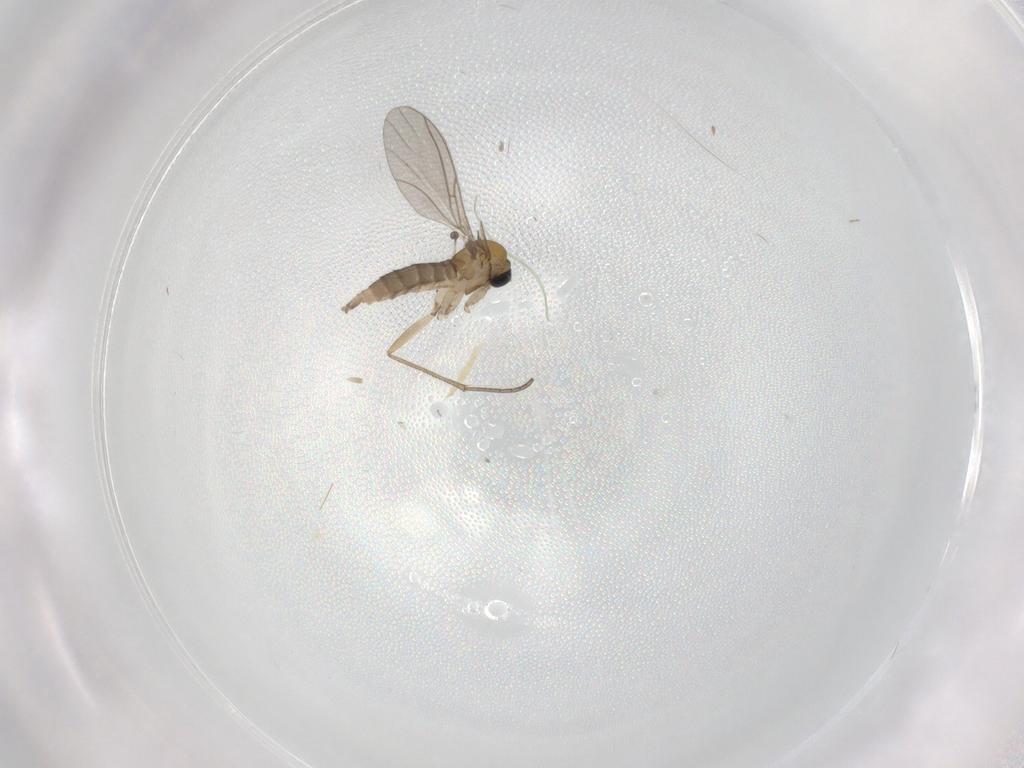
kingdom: Animalia
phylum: Arthropoda
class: Insecta
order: Diptera
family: Sciaridae
